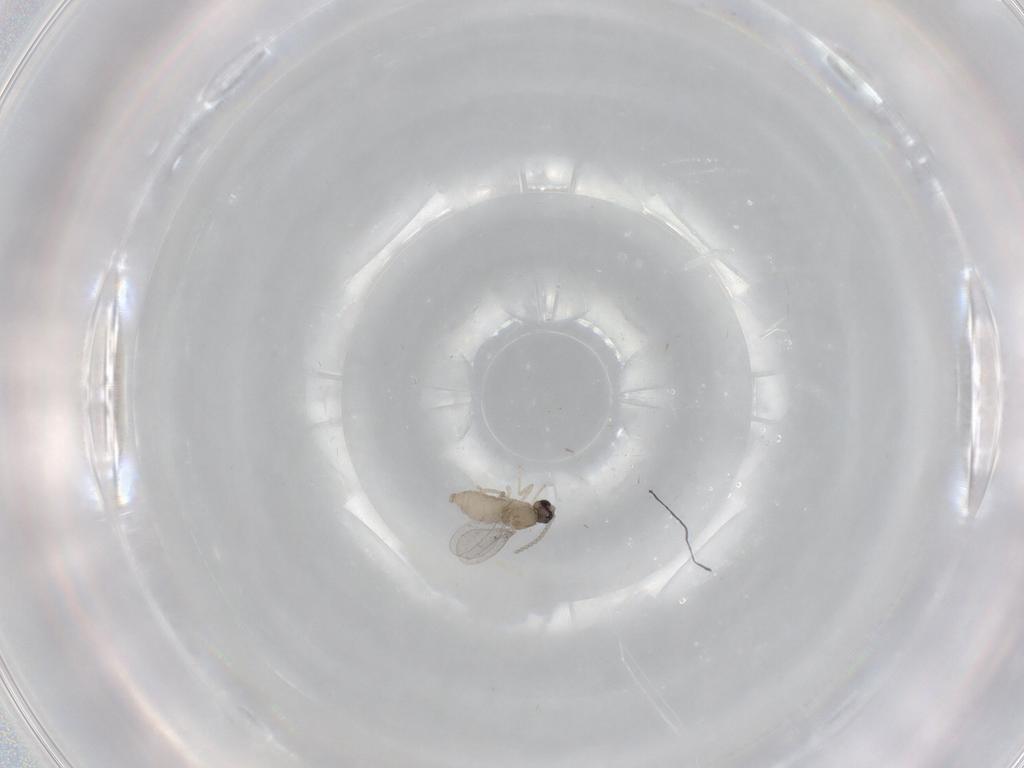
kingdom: Animalia
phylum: Arthropoda
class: Insecta
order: Diptera
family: Cecidomyiidae
